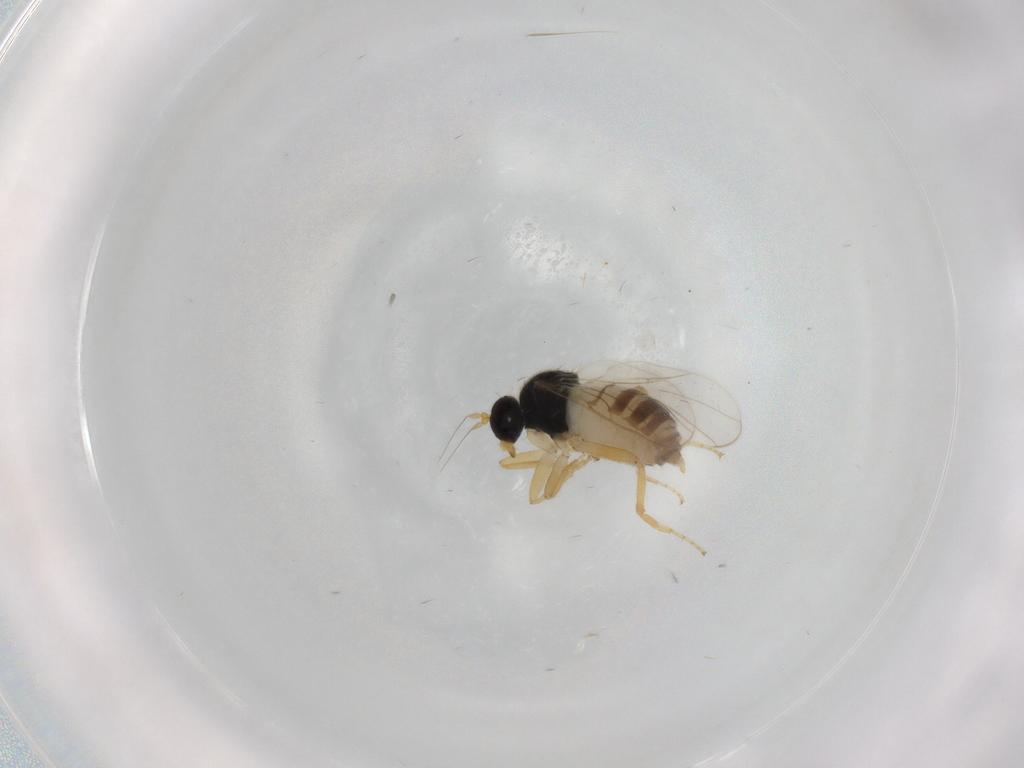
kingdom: Animalia
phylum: Arthropoda
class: Insecta
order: Diptera
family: Hybotidae
